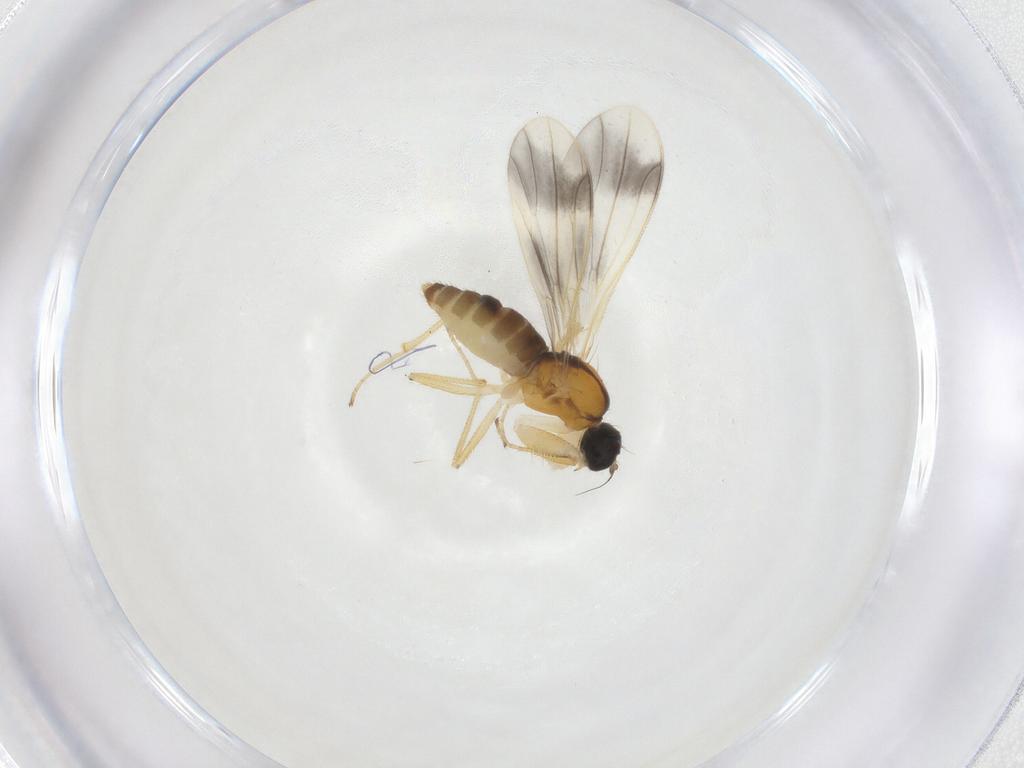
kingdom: Animalia
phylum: Arthropoda
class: Insecta
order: Diptera
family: Empididae
